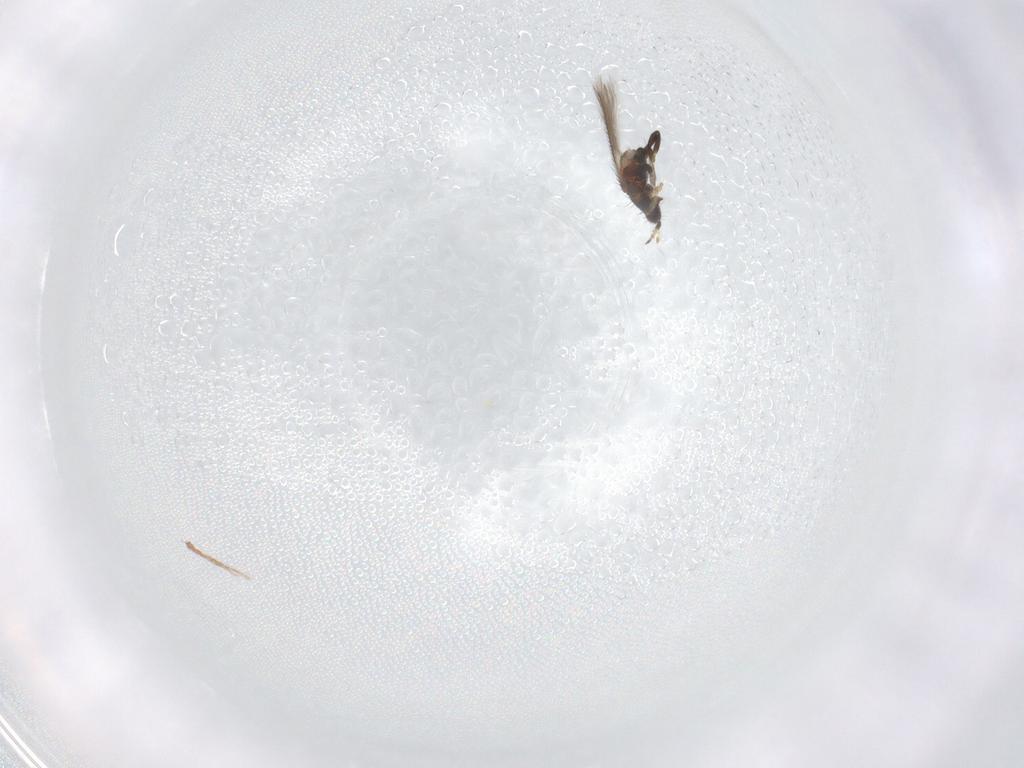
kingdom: Animalia
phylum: Arthropoda
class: Insecta
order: Thysanoptera
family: Thripidae
